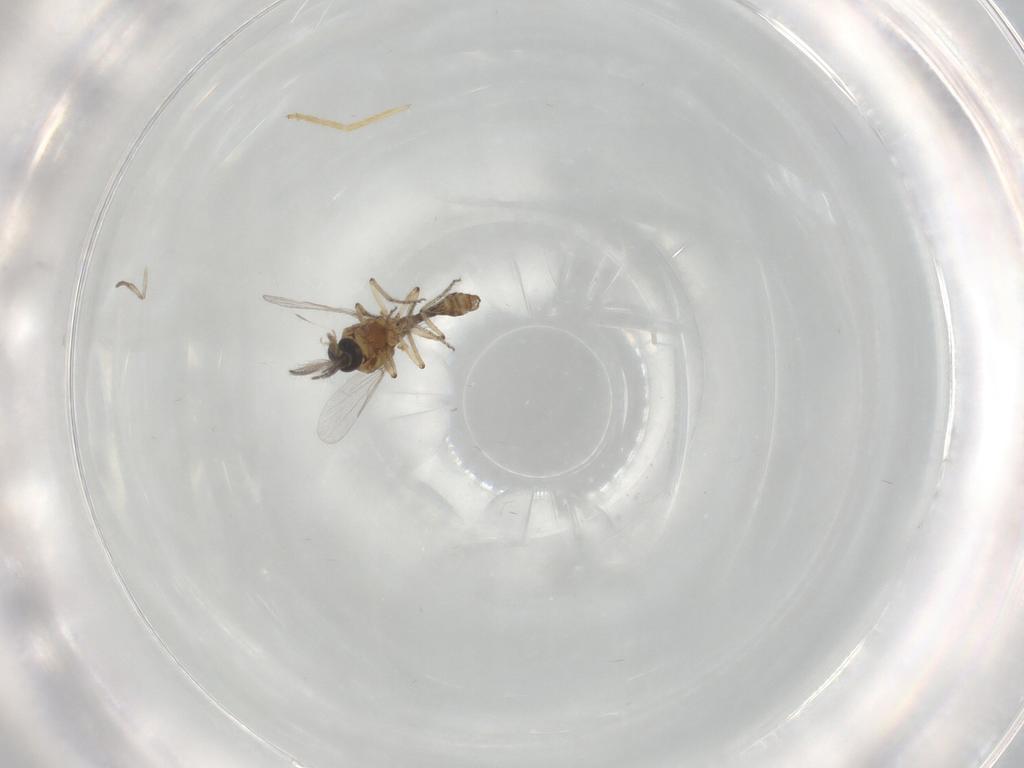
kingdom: Animalia
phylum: Arthropoda
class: Insecta
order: Diptera
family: Ceratopogonidae
